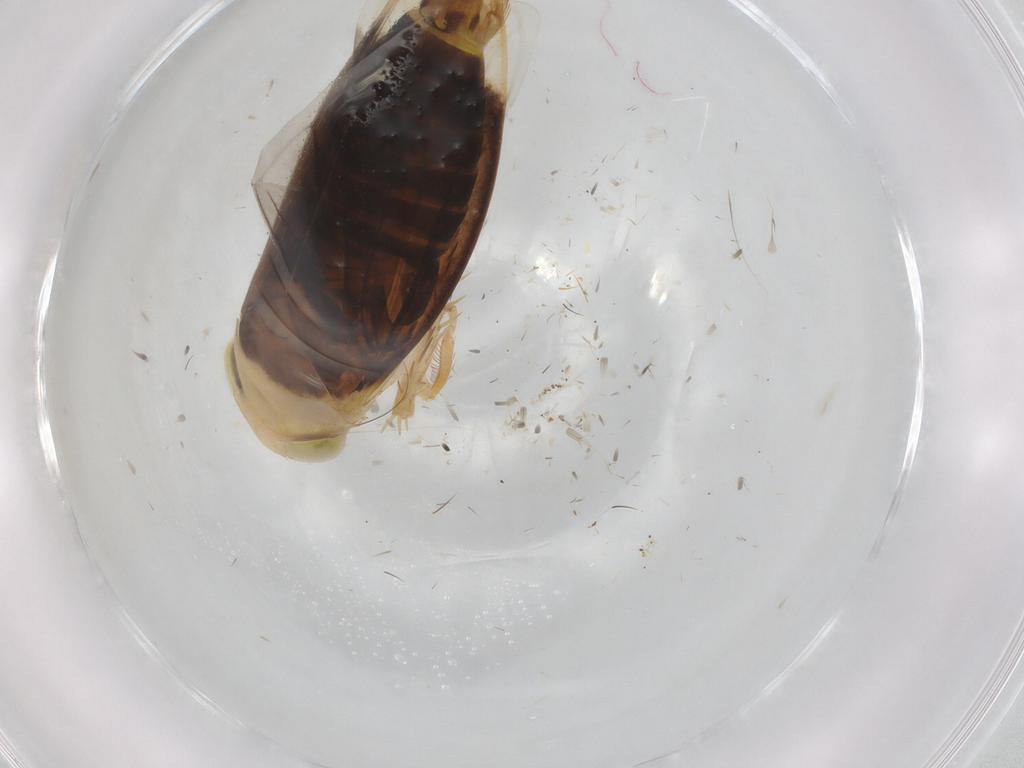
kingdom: Animalia
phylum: Arthropoda
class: Insecta
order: Hemiptera
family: Cicadellidae
